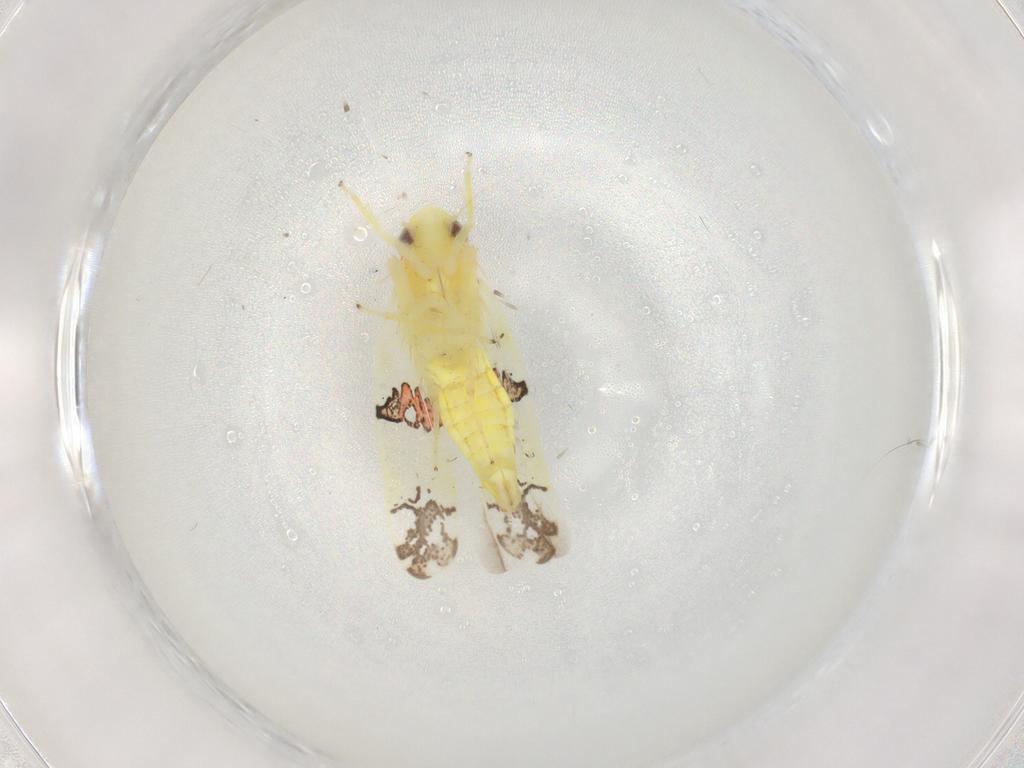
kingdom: Animalia
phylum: Arthropoda
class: Insecta
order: Hemiptera
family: Cicadellidae
